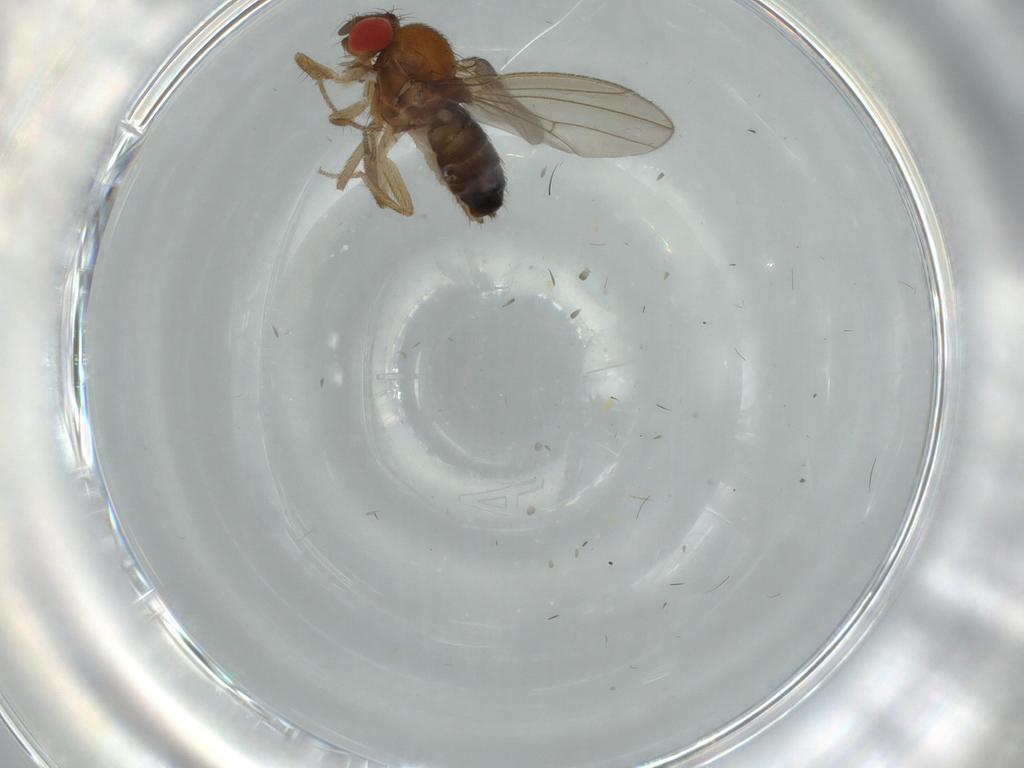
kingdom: Animalia
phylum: Arthropoda
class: Insecta
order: Diptera
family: Drosophilidae
